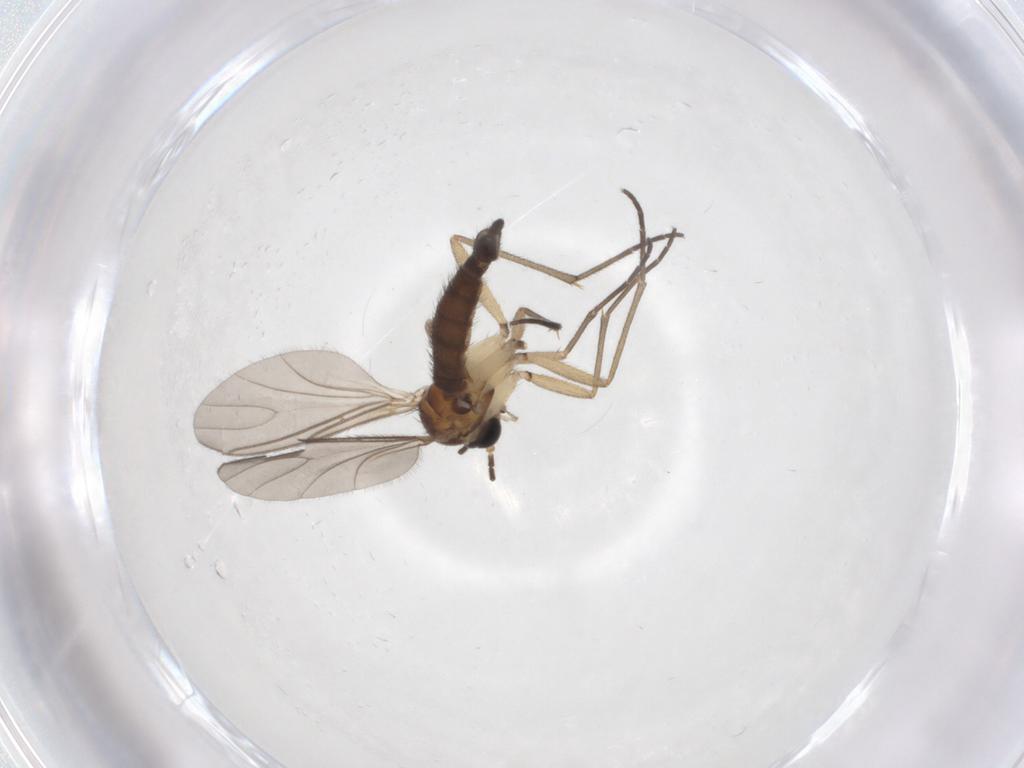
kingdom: Animalia
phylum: Arthropoda
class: Insecta
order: Diptera
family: Sciaridae
